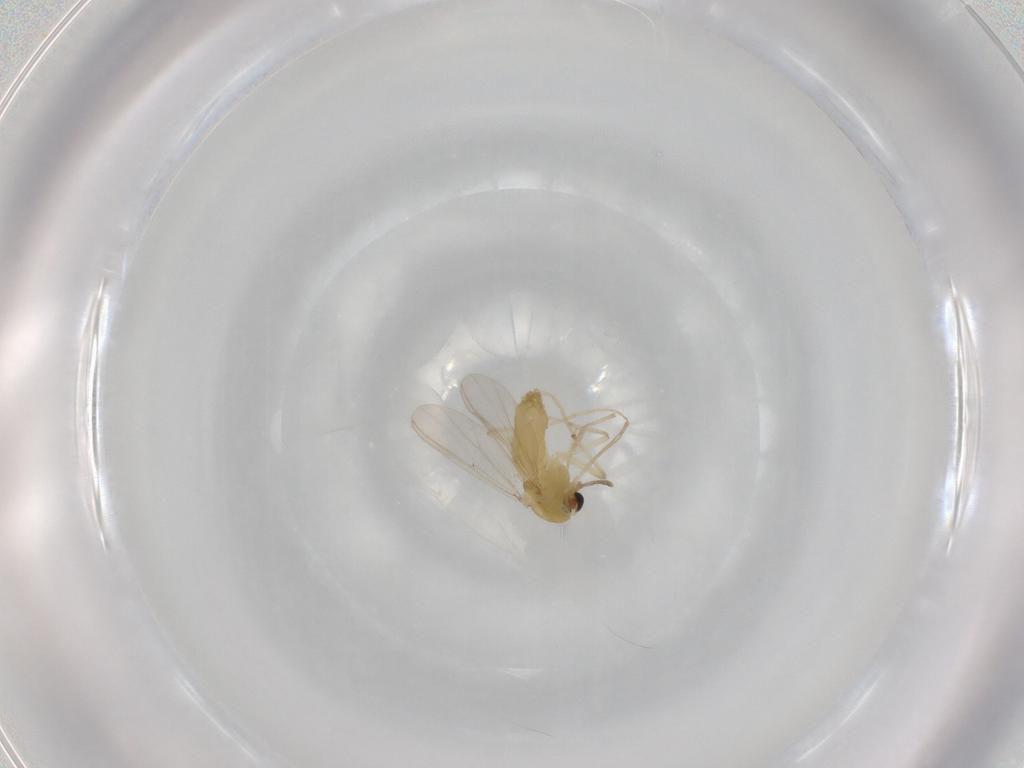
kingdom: Animalia
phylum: Arthropoda
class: Insecta
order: Diptera
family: Chironomidae
